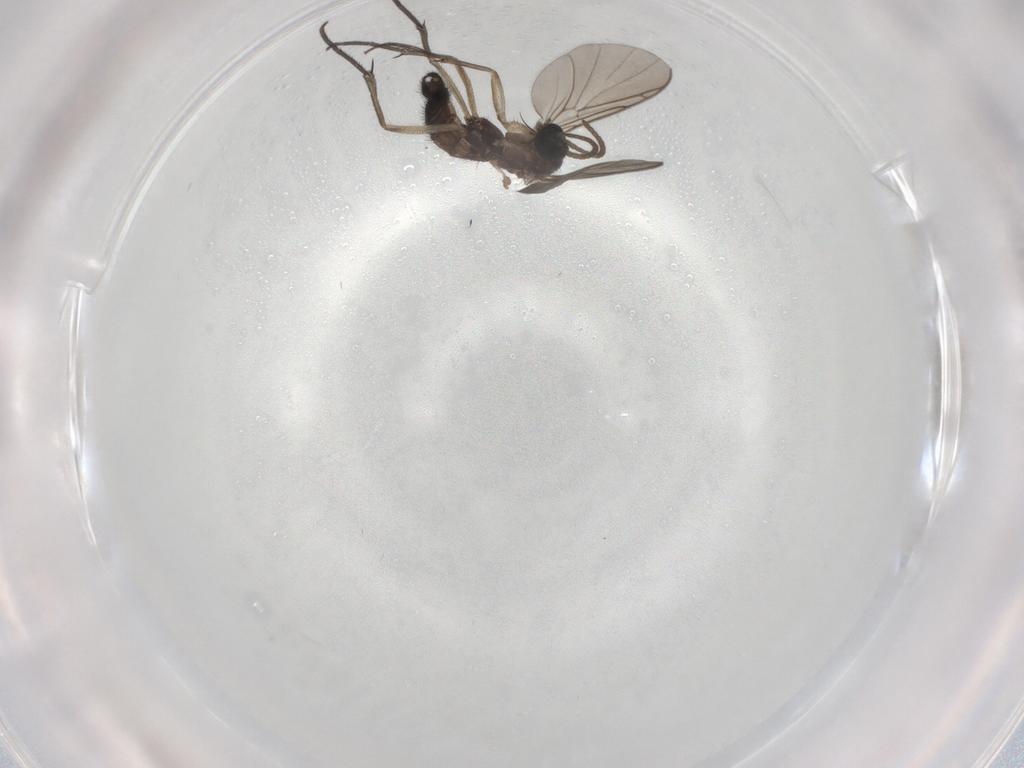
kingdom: Animalia
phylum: Arthropoda
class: Insecta
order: Diptera
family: Keroplatidae
